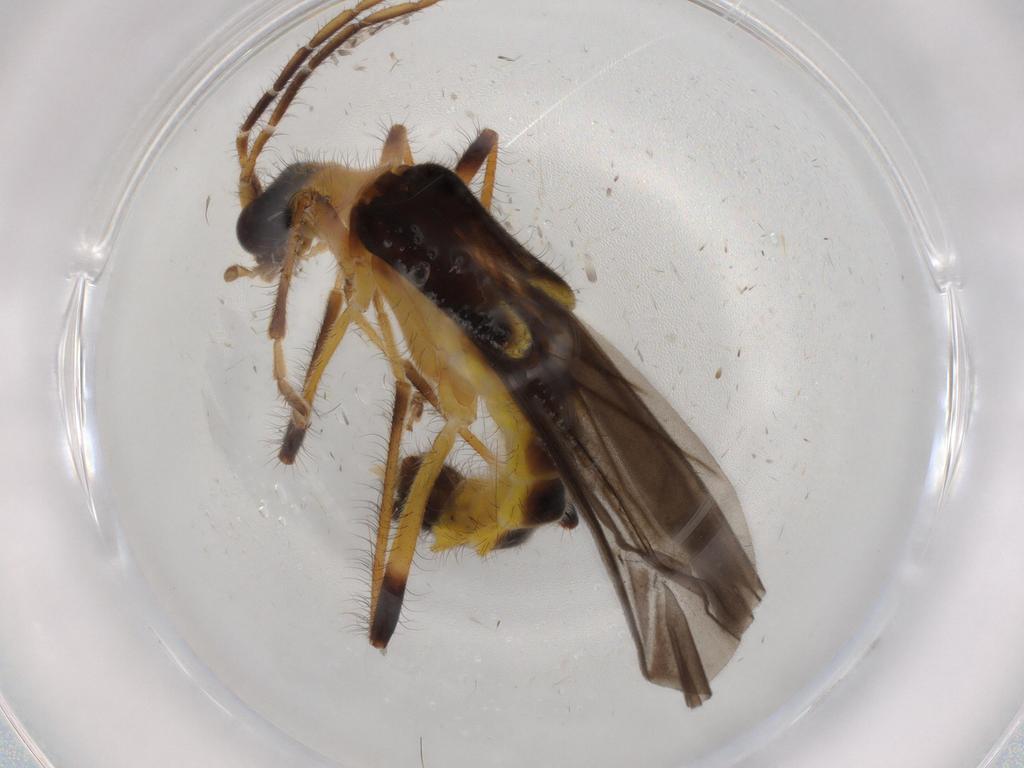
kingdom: Animalia
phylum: Arthropoda
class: Insecta
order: Coleoptera
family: Cantharidae
